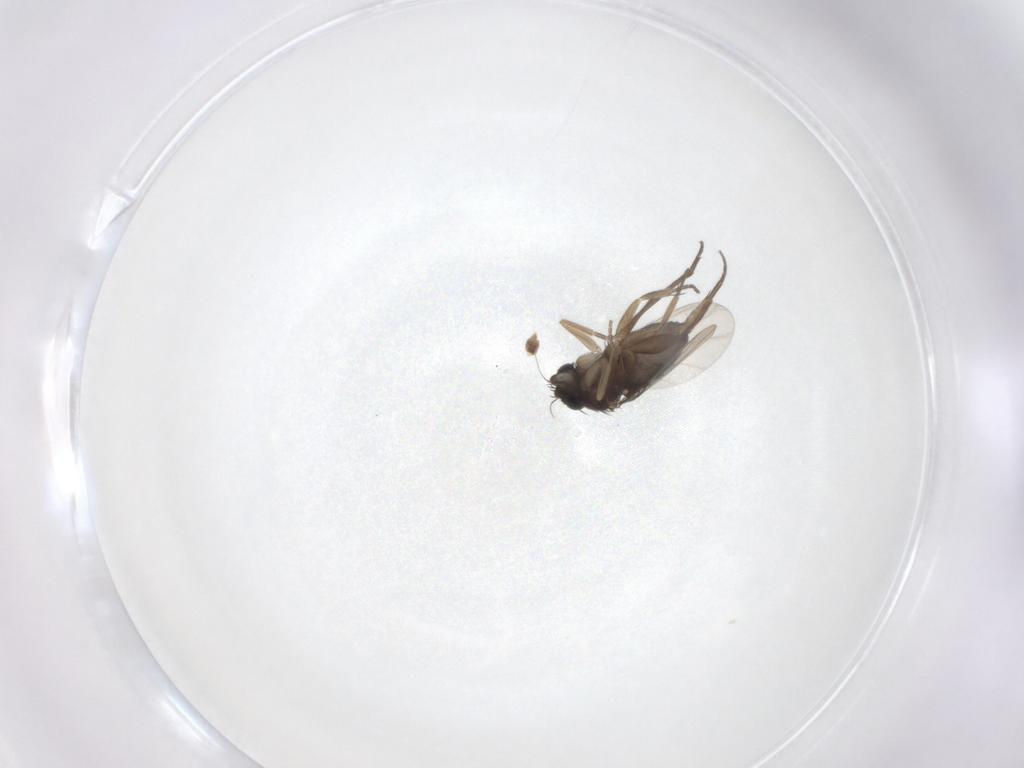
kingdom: Animalia
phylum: Arthropoda
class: Insecta
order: Diptera
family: Phoridae
